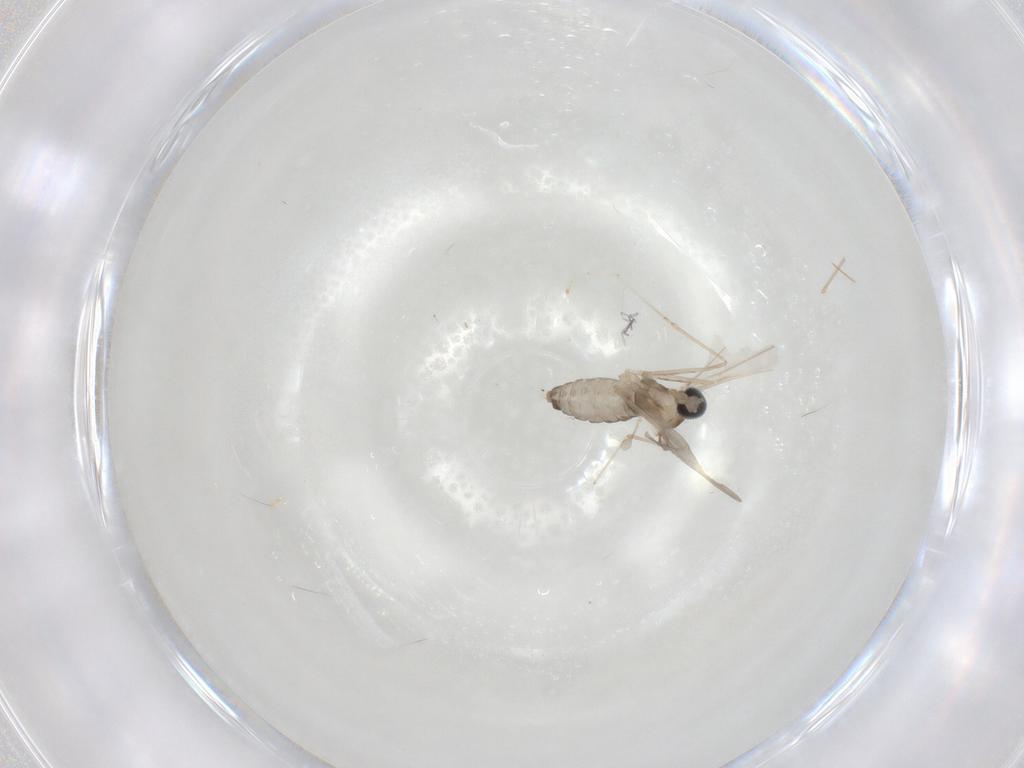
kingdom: Animalia
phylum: Arthropoda
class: Insecta
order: Diptera
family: Cecidomyiidae
